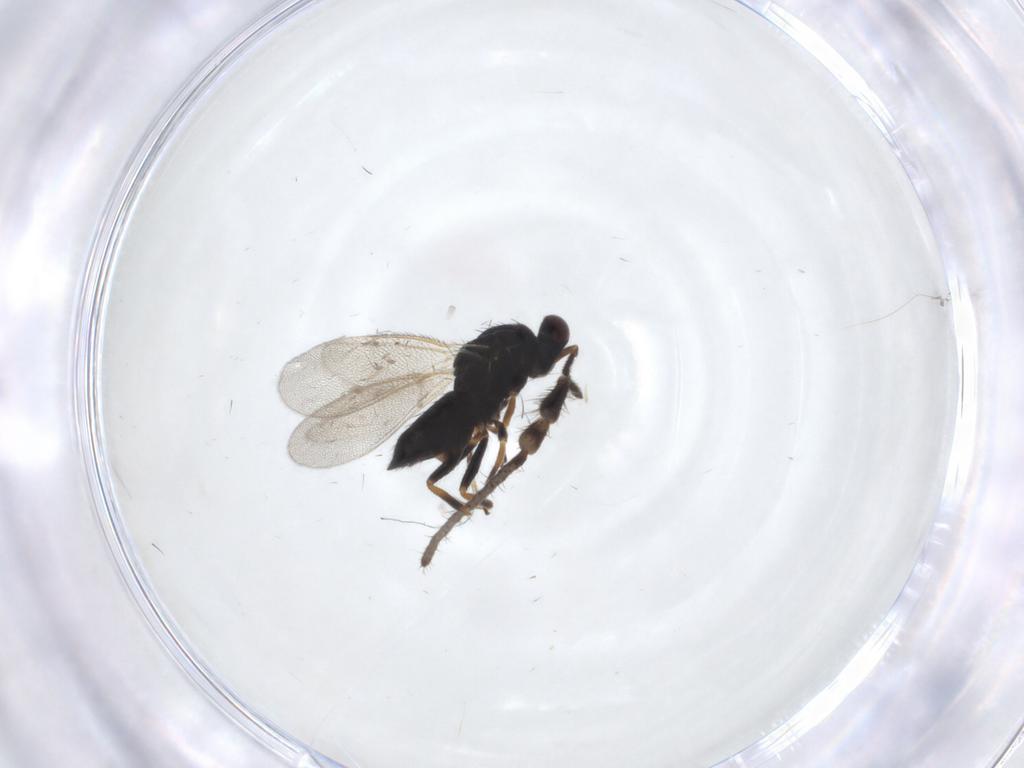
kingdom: Animalia
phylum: Arthropoda
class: Insecta
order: Hymenoptera
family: Eulophidae
